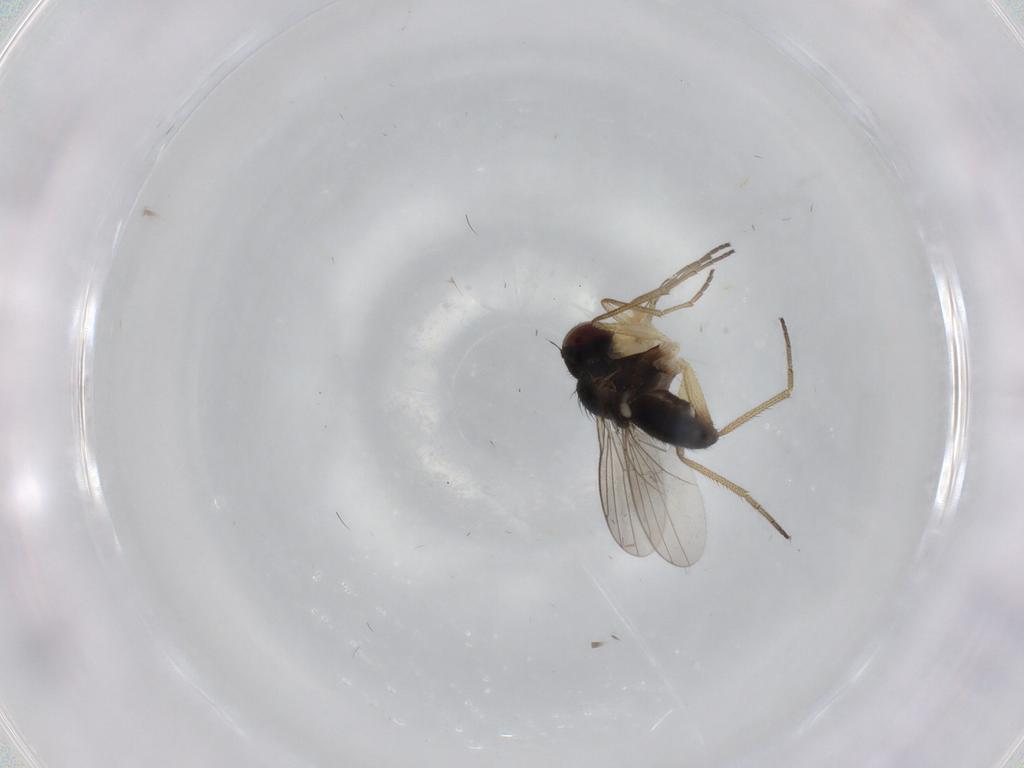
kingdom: Animalia
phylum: Arthropoda
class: Insecta
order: Diptera
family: Dolichopodidae
